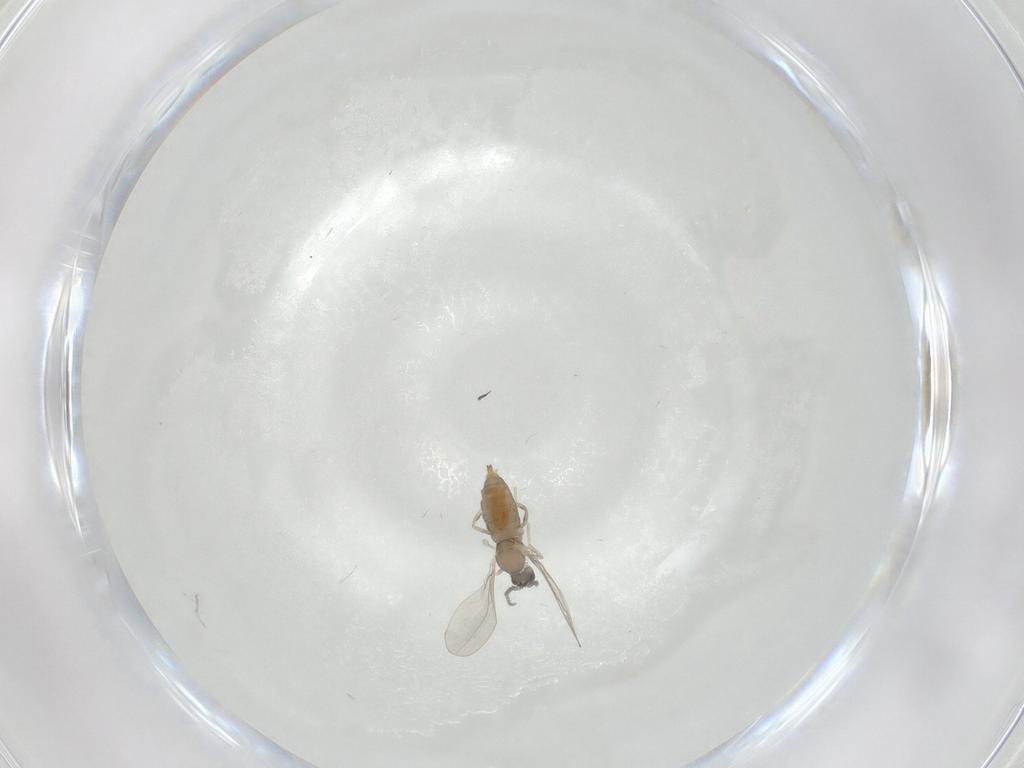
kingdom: Animalia
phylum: Arthropoda
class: Insecta
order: Diptera
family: Cecidomyiidae
